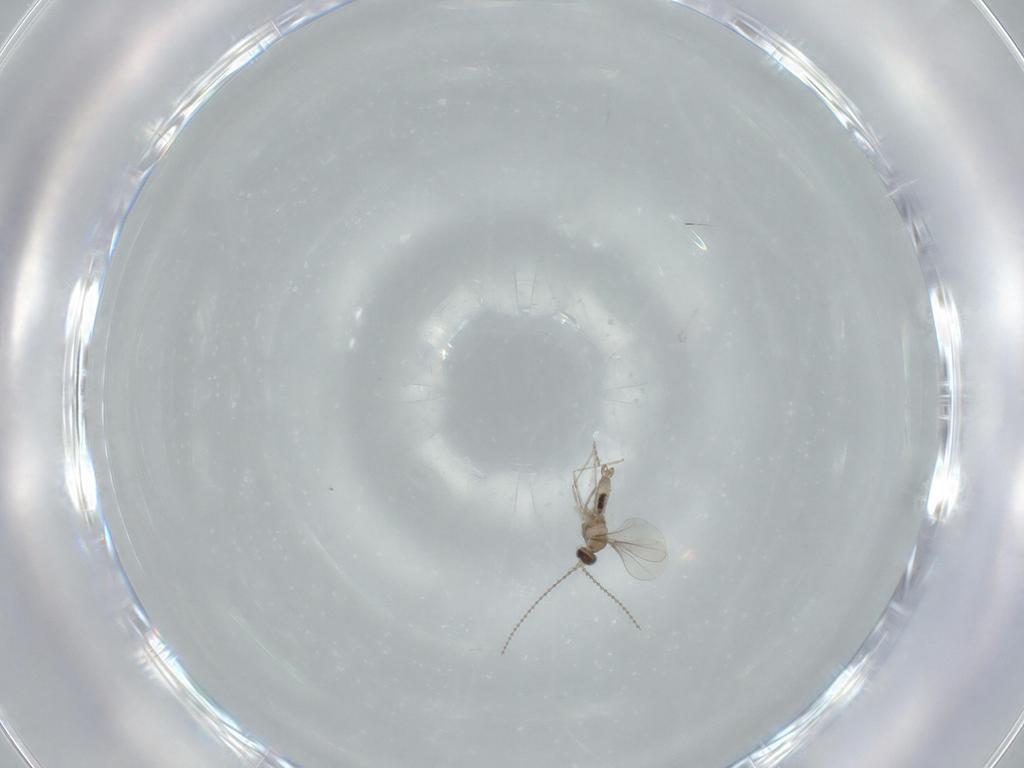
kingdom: Animalia
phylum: Arthropoda
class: Insecta
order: Diptera
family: Cecidomyiidae
